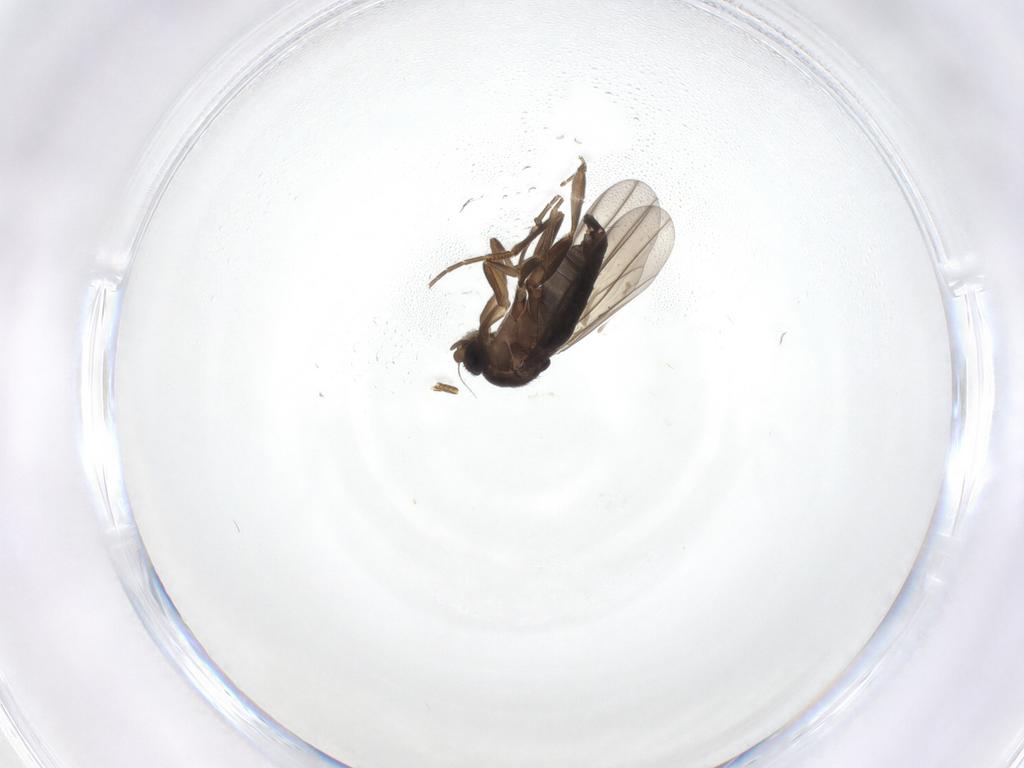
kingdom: Animalia
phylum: Arthropoda
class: Insecta
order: Diptera
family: Phoridae
